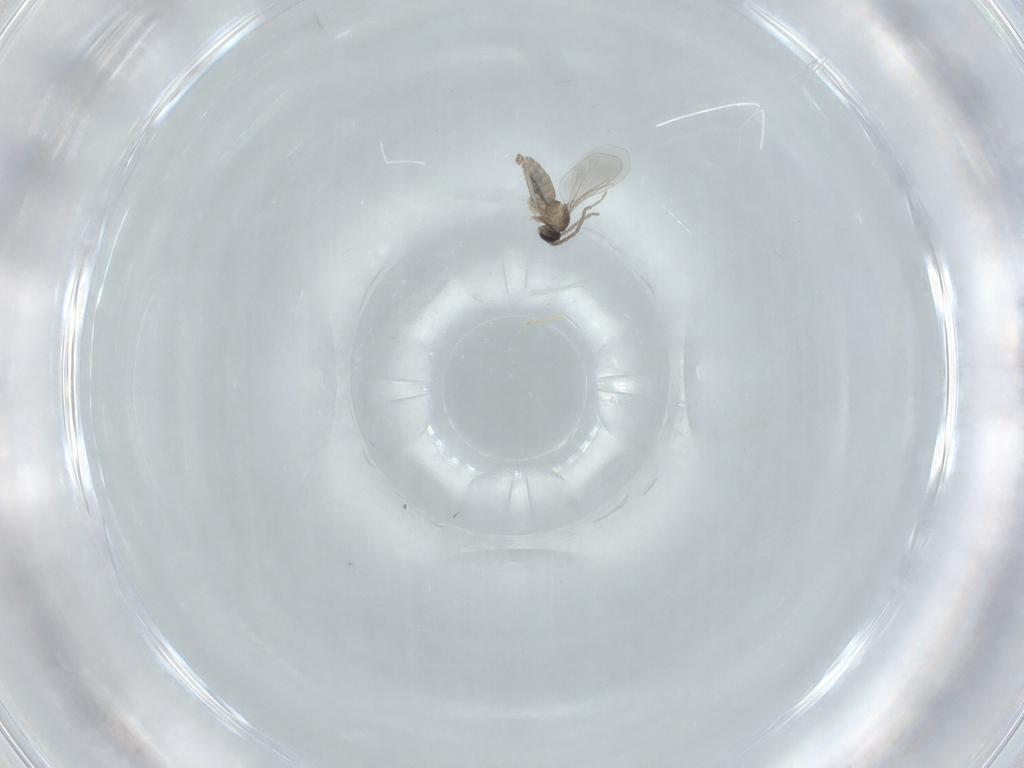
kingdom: Animalia
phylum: Arthropoda
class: Insecta
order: Diptera
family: Cecidomyiidae
